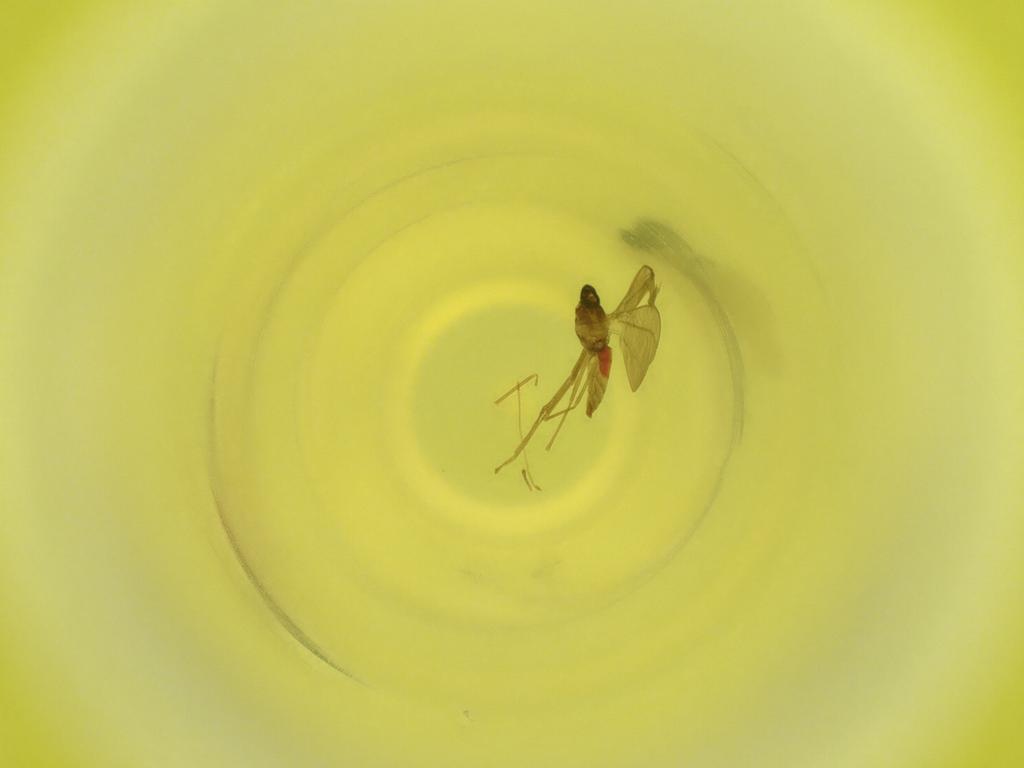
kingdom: Animalia
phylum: Arthropoda
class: Insecta
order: Diptera
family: Cecidomyiidae
